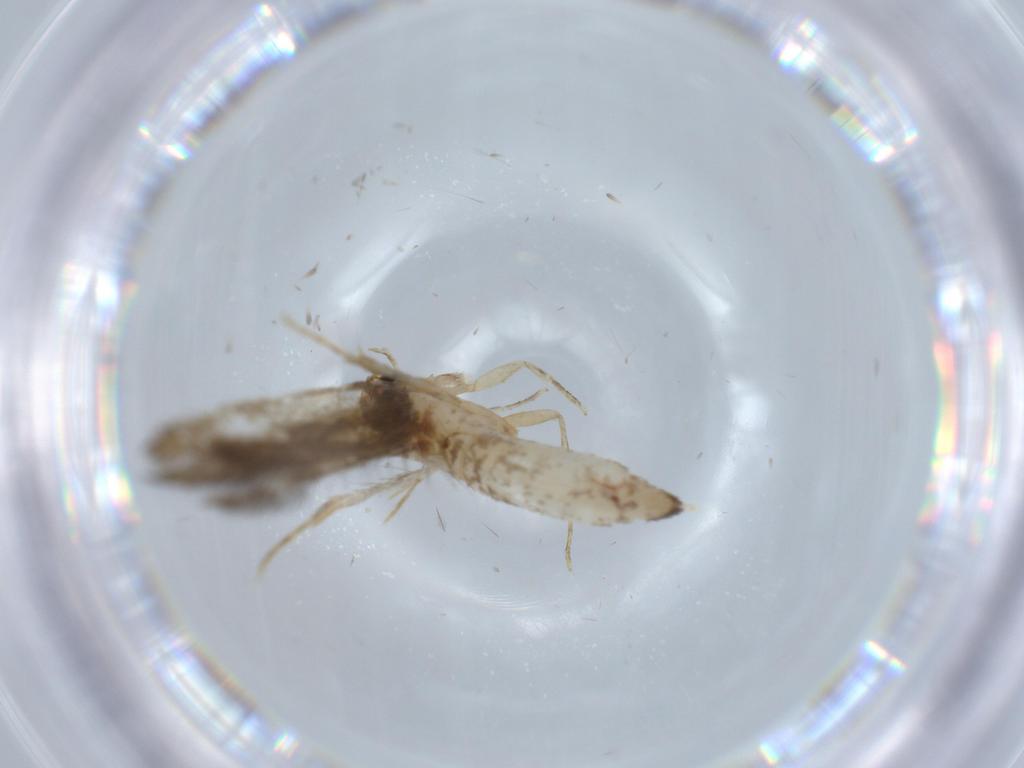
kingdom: Animalia
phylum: Arthropoda
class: Insecta
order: Lepidoptera
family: Tineidae
